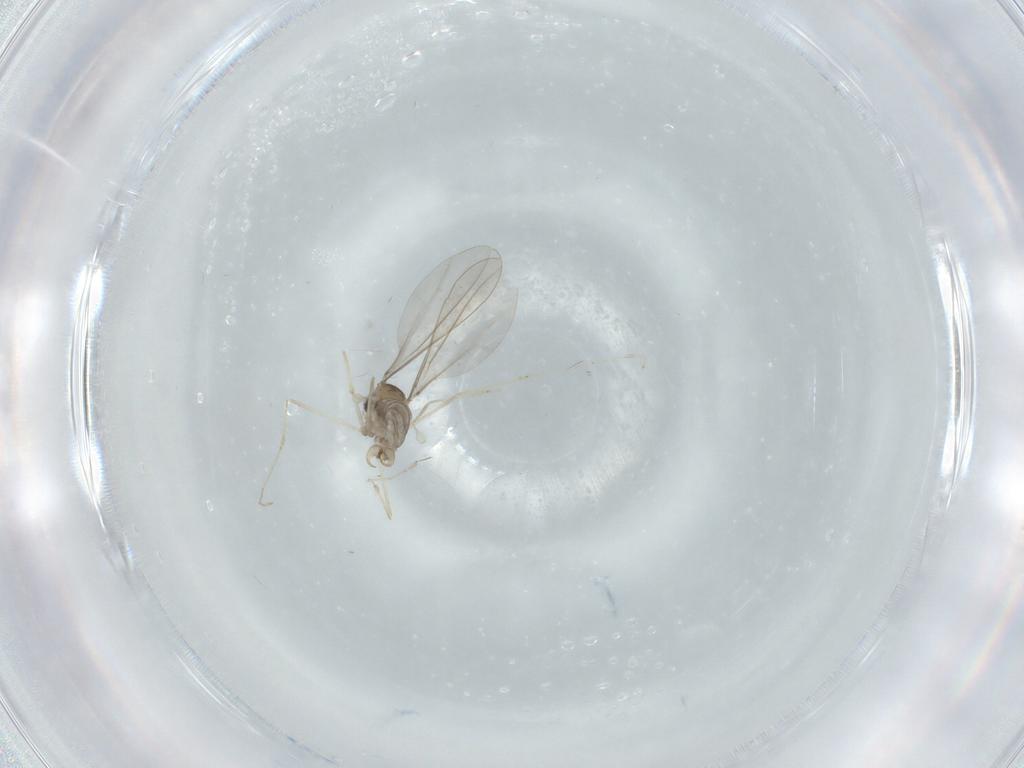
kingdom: Animalia
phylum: Arthropoda
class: Insecta
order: Diptera
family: Cecidomyiidae
